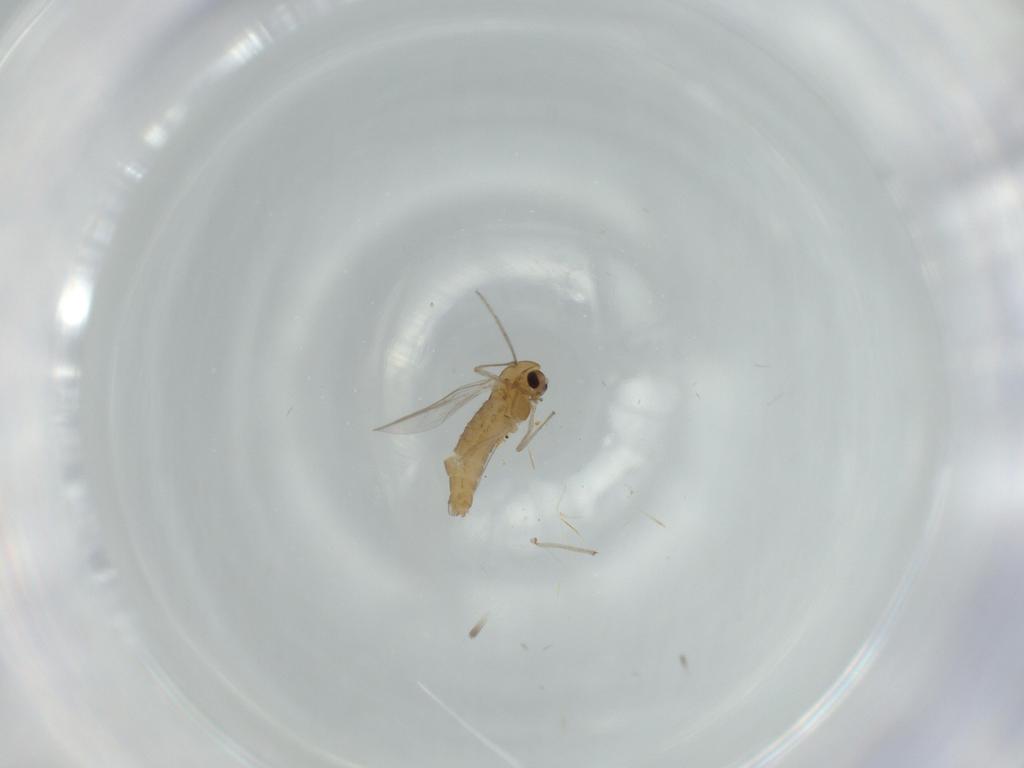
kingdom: Animalia
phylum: Arthropoda
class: Insecta
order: Diptera
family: Chironomidae
